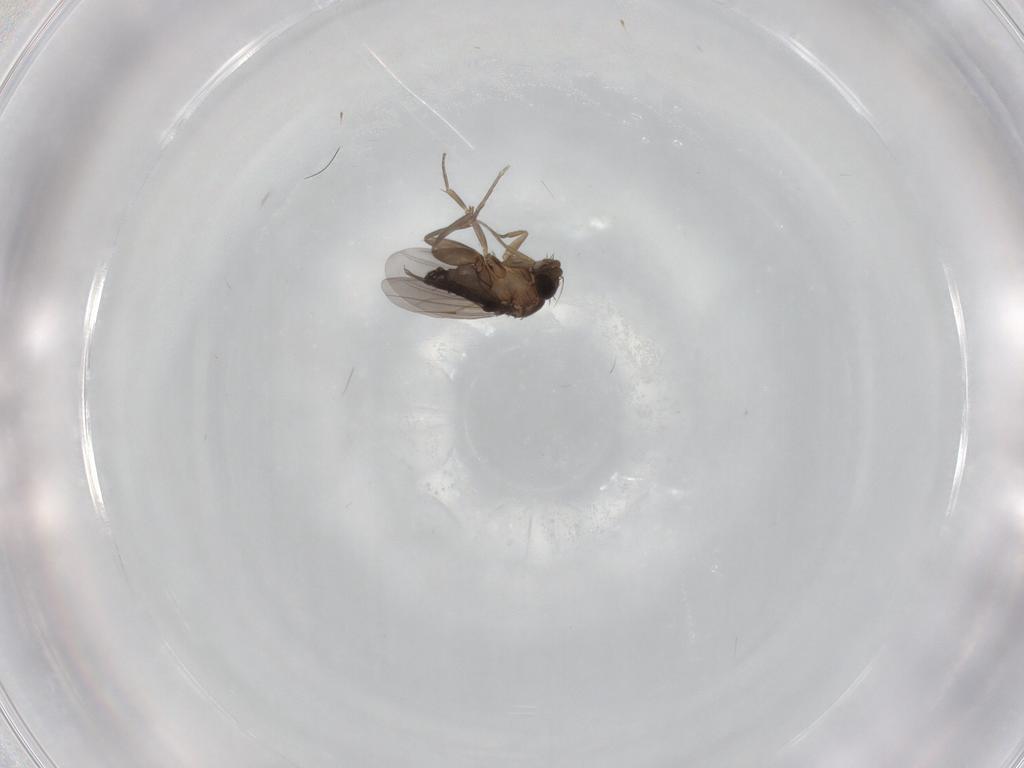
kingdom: Animalia
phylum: Arthropoda
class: Insecta
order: Diptera
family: Phoridae
